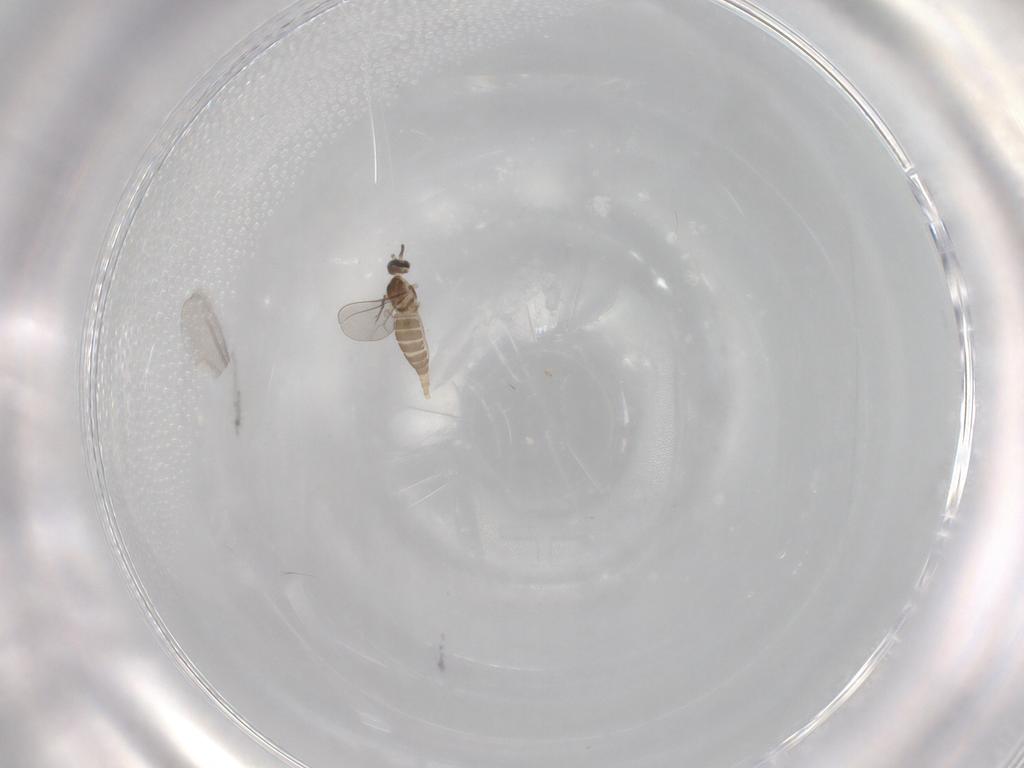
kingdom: Animalia
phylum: Arthropoda
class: Insecta
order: Diptera
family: Cecidomyiidae
